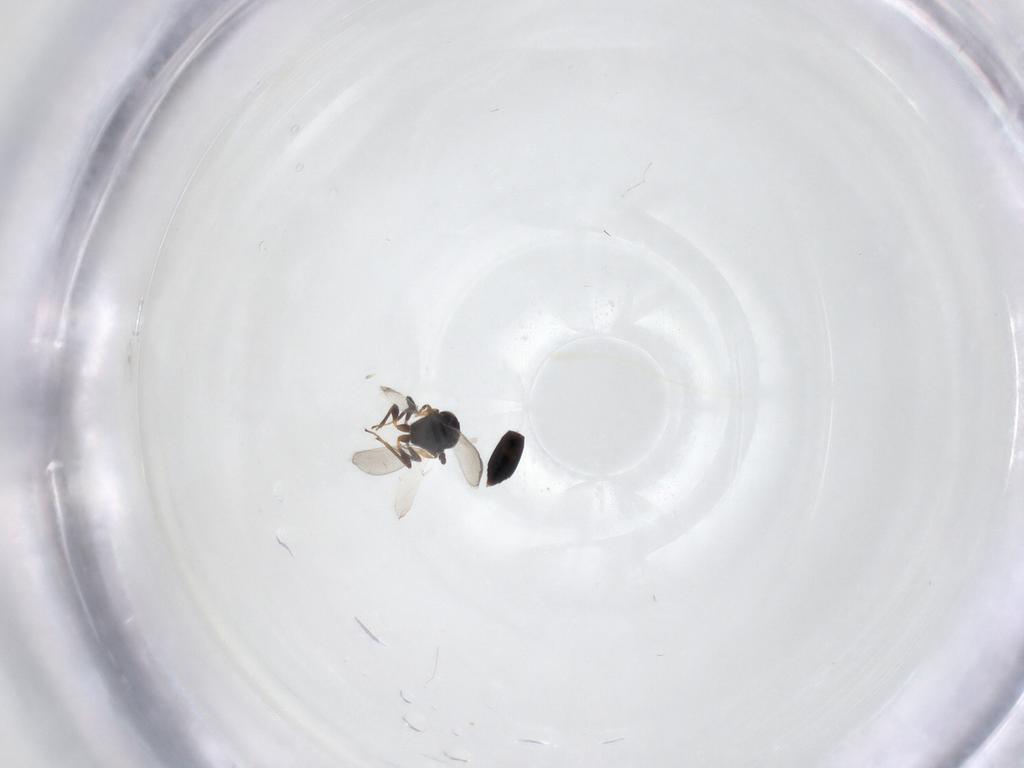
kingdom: Animalia
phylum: Arthropoda
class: Insecta
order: Hymenoptera
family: Platygastridae
